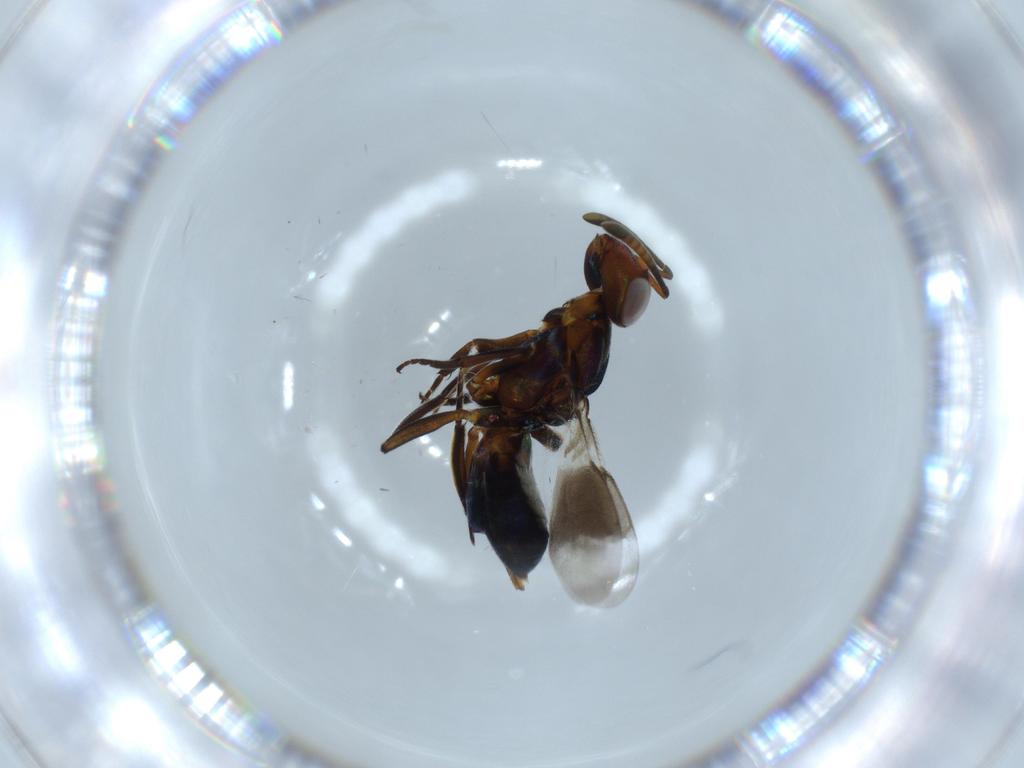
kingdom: Animalia
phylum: Arthropoda
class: Insecta
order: Hymenoptera
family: Eupelmidae
